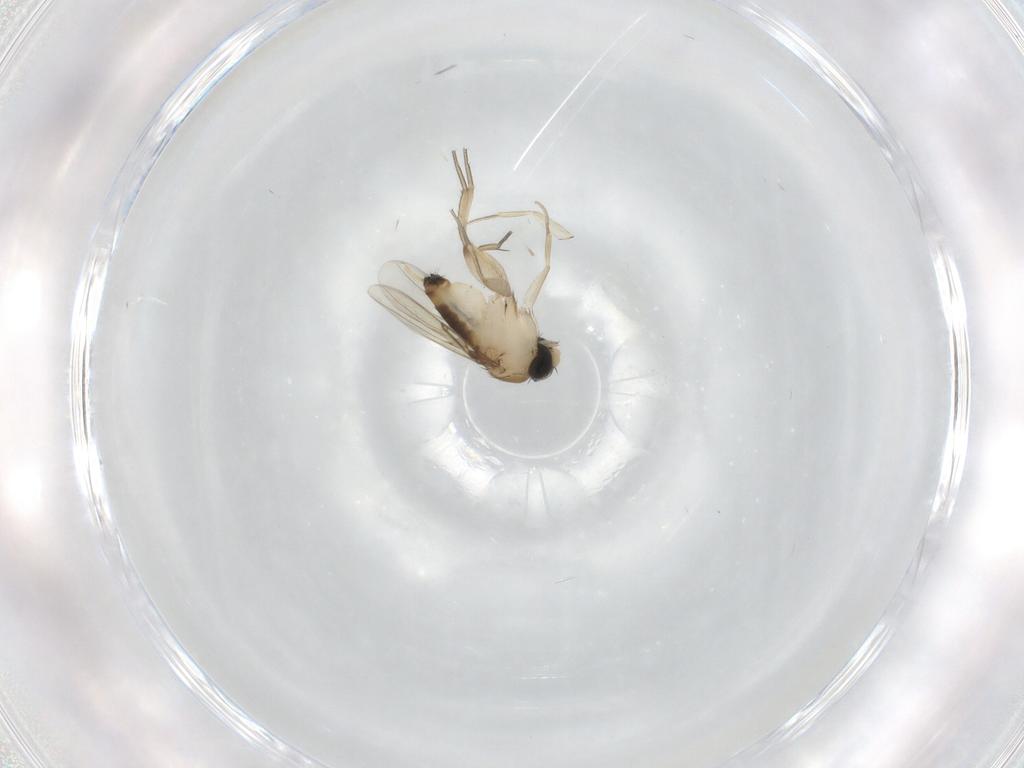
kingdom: Animalia
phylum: Arthropoda
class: Insecta
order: Diptera
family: Phoridae
